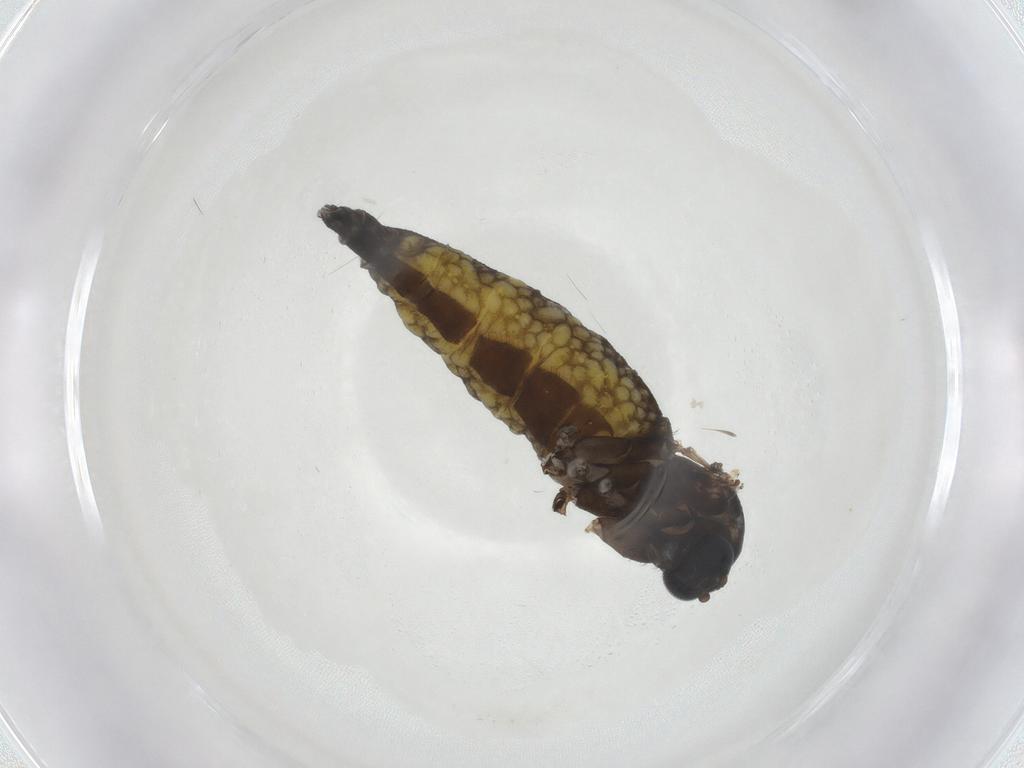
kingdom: Animalia
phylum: Arthropoda
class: Insecta
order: Diptera
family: Sciaridae
